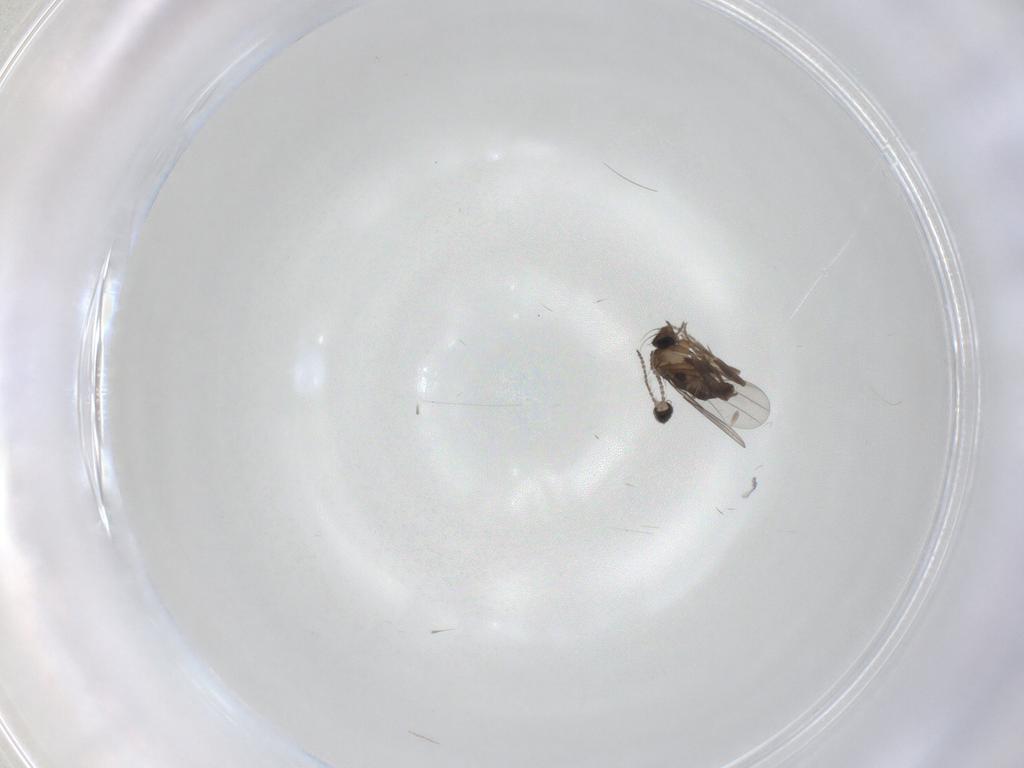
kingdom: Animalia
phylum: Arthropoda
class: Insecta
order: Diptera
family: Phoridae
